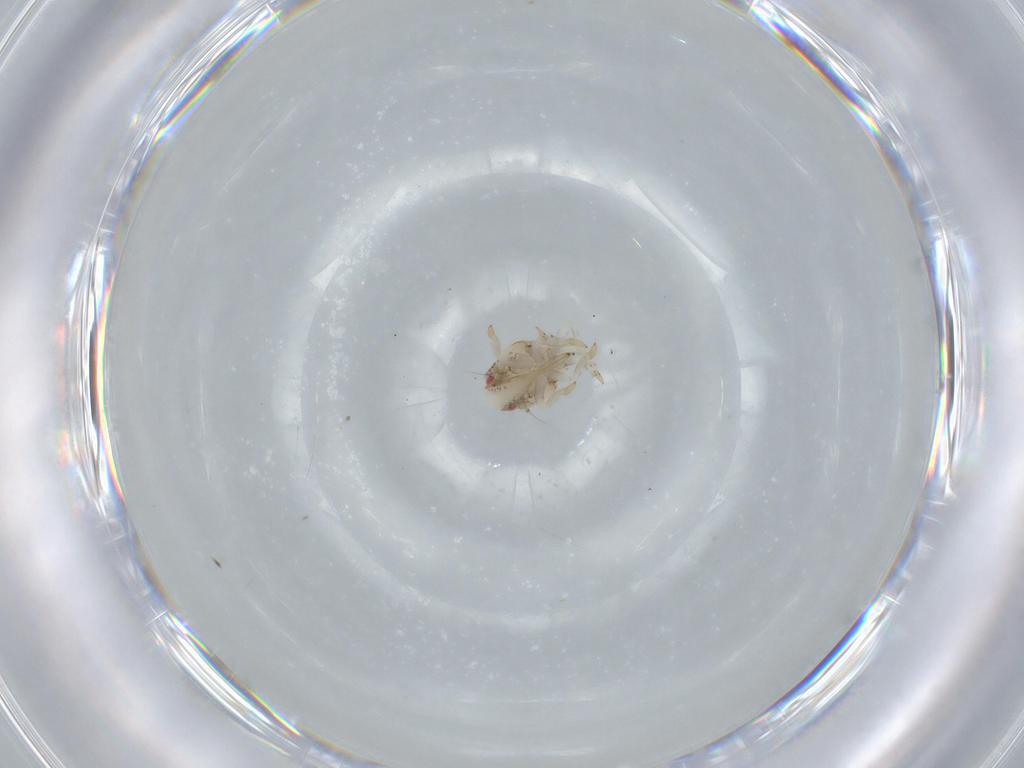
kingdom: Animalia
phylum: Arthropoda
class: Insecta
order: Hemiptera
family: Acanaloniidae
